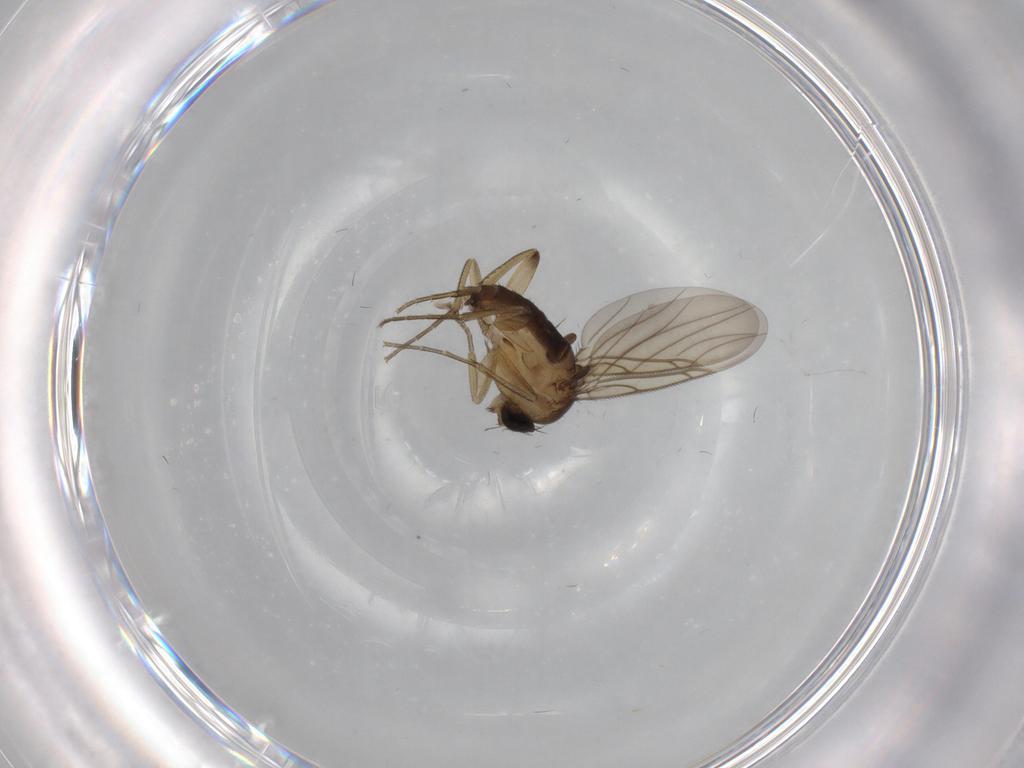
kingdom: Animalia
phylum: Arthropoda
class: Insecta
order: Diptera
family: Phoridae
